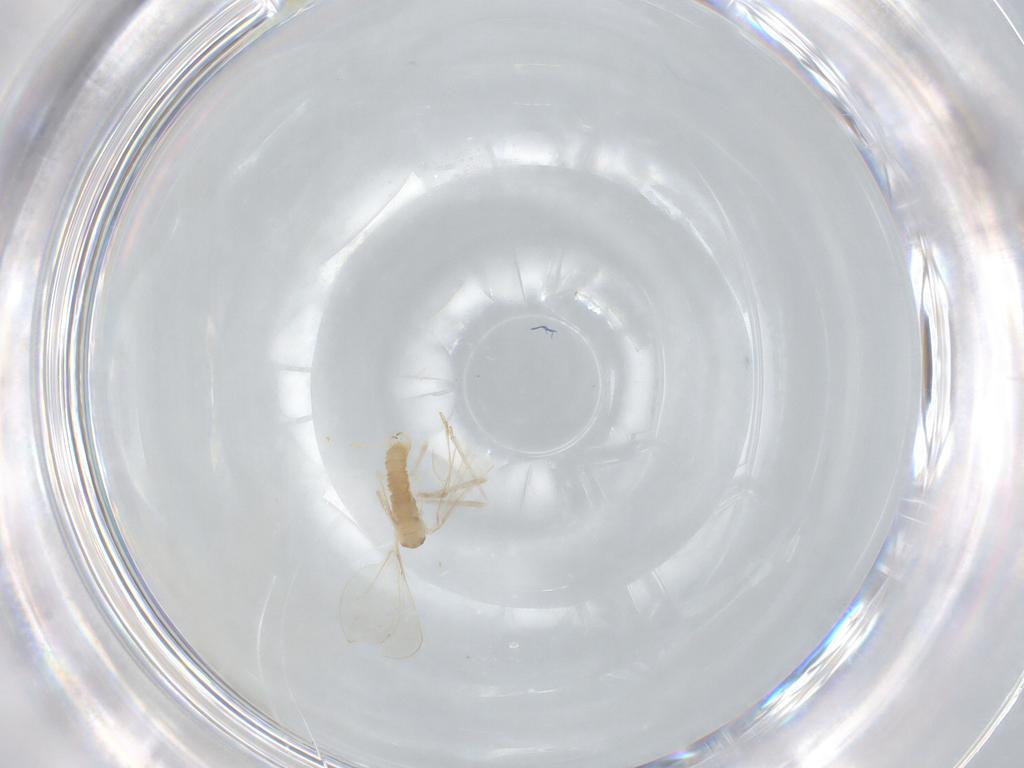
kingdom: Animalia
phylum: Arthropoda
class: Insecta
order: Diptera
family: Cecidomyiidae
